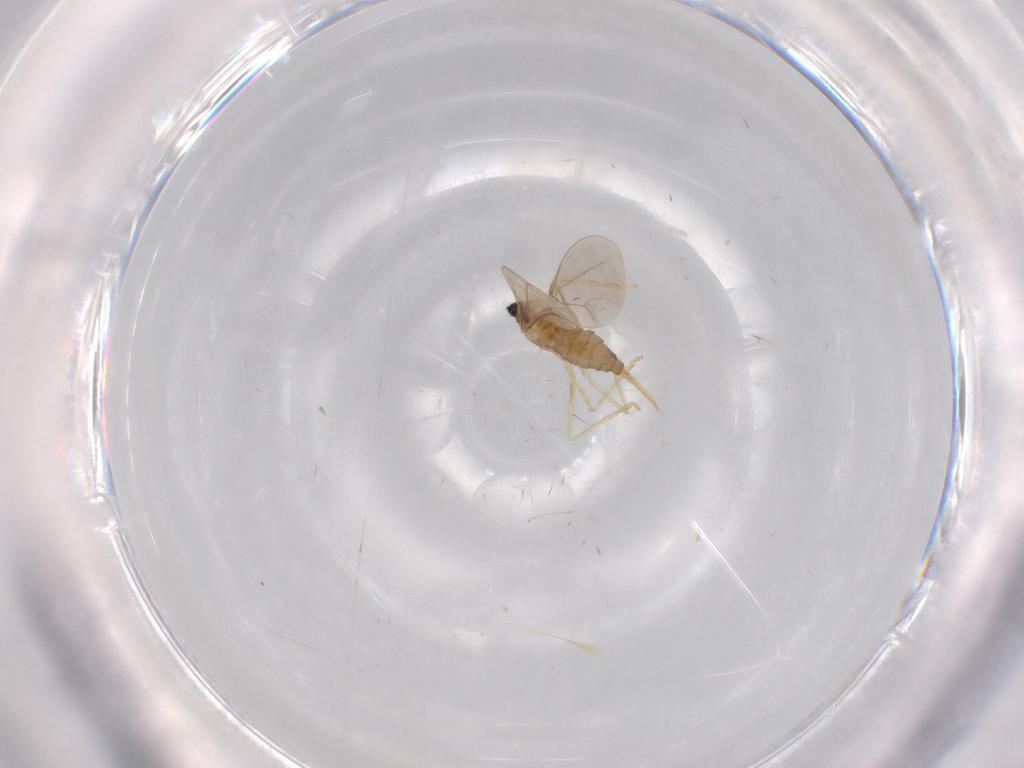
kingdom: Animalia
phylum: Arthropoda
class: Insecta
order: Diptera
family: Cecidomyiidae
